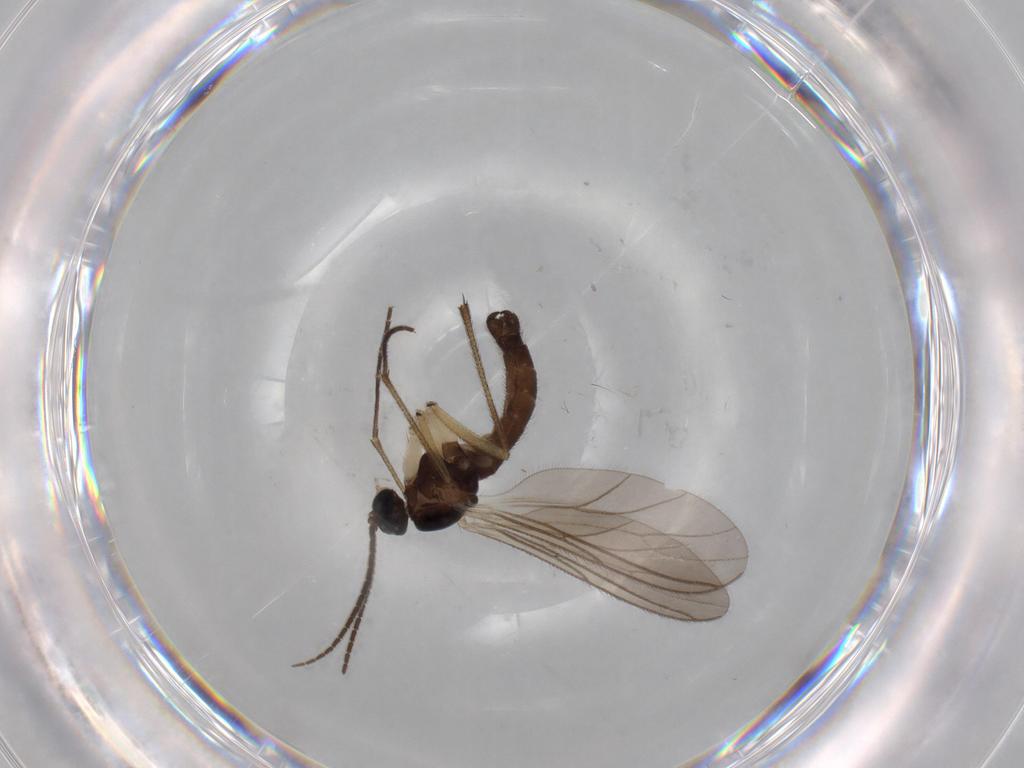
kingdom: Animalia
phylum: Arthropoda
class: Insecta
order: Diptera
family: Sciaridae
